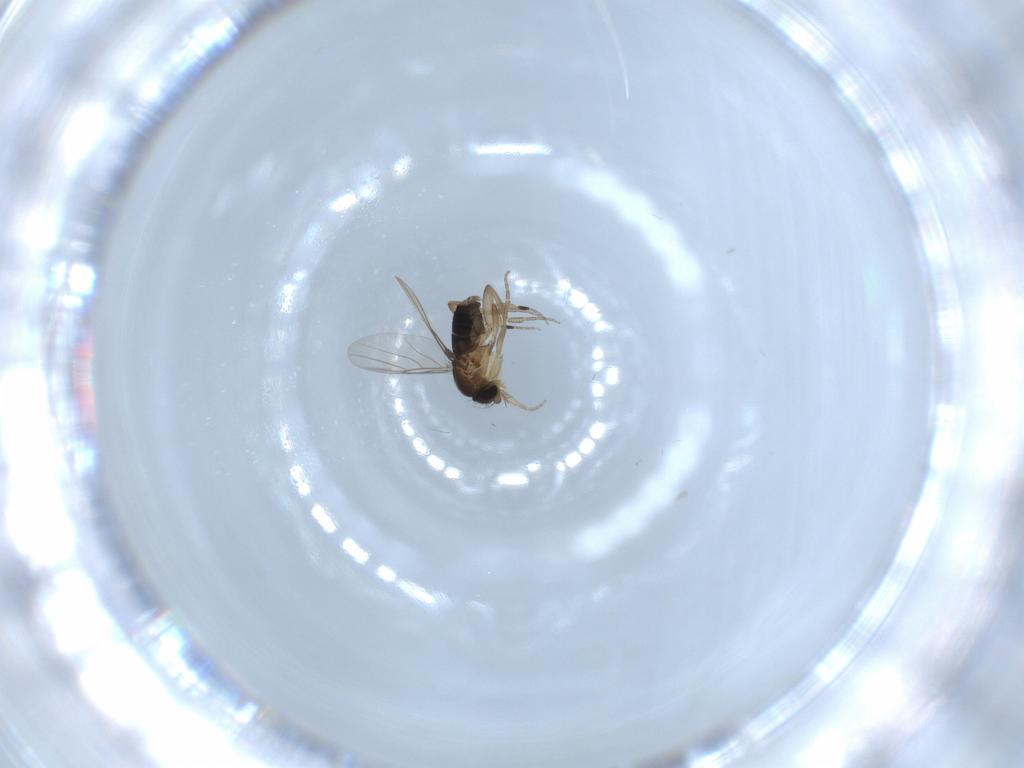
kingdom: Animalia
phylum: Arthropoda
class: Insecta
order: Diptera
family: Phoridae
